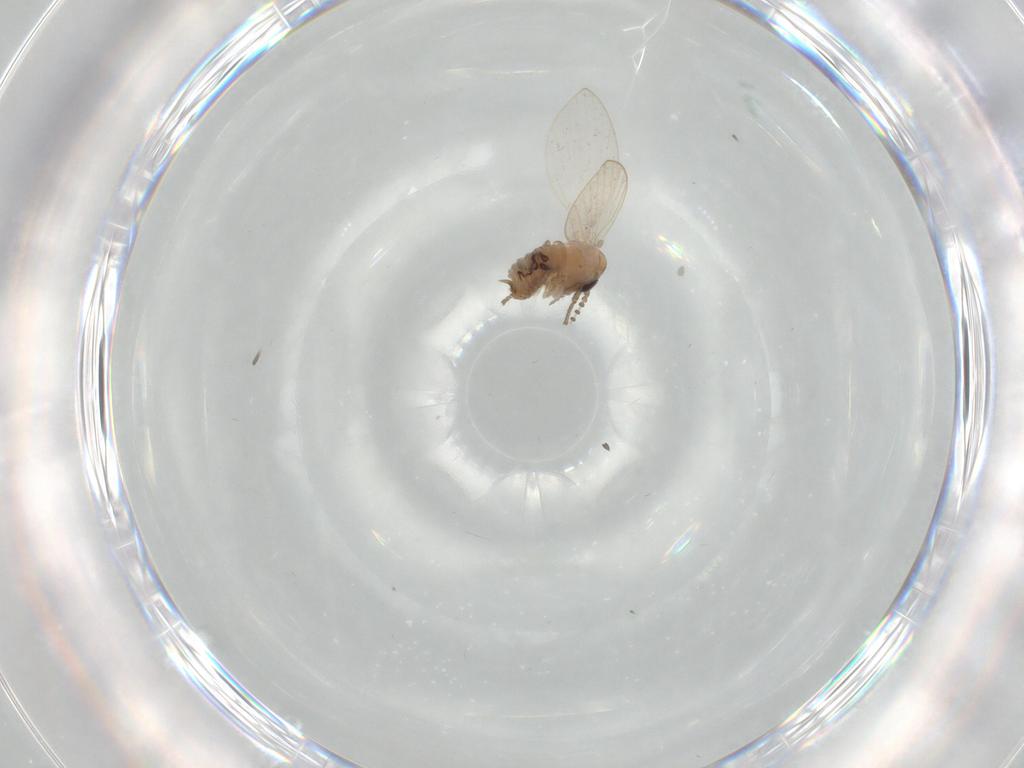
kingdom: Animalia
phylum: Arthropoda
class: Insecta
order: Diptera
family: Psychodidae
